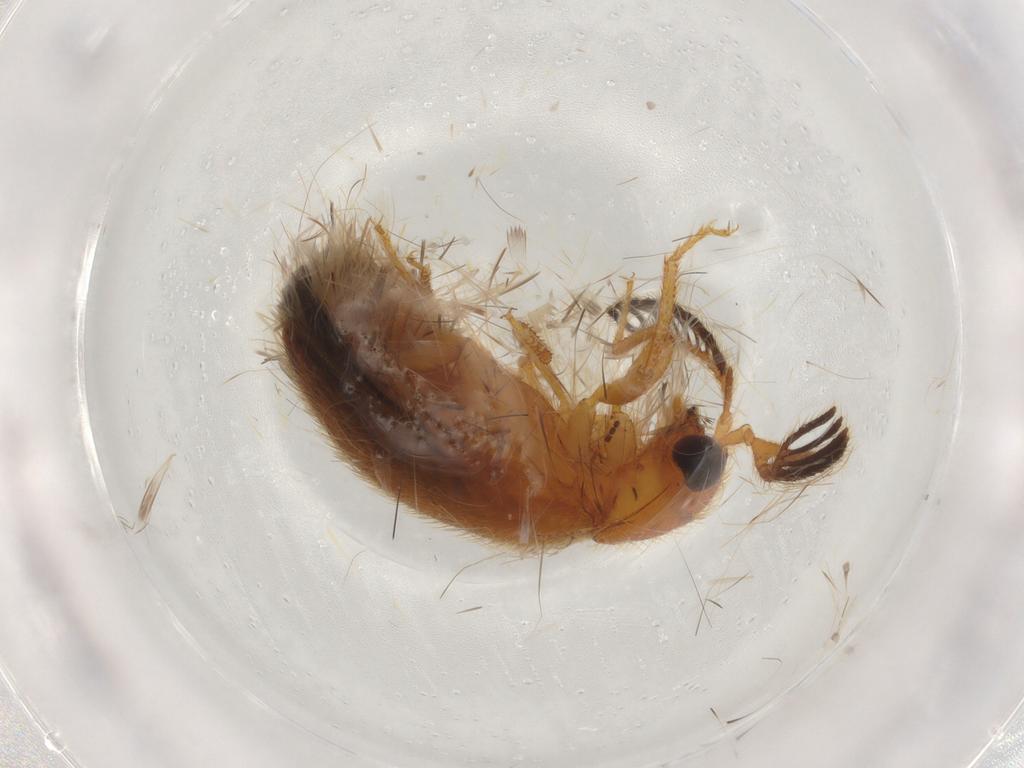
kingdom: Animalia
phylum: Arthropoda
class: Insecta
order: Coleoptera
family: Elateridae
